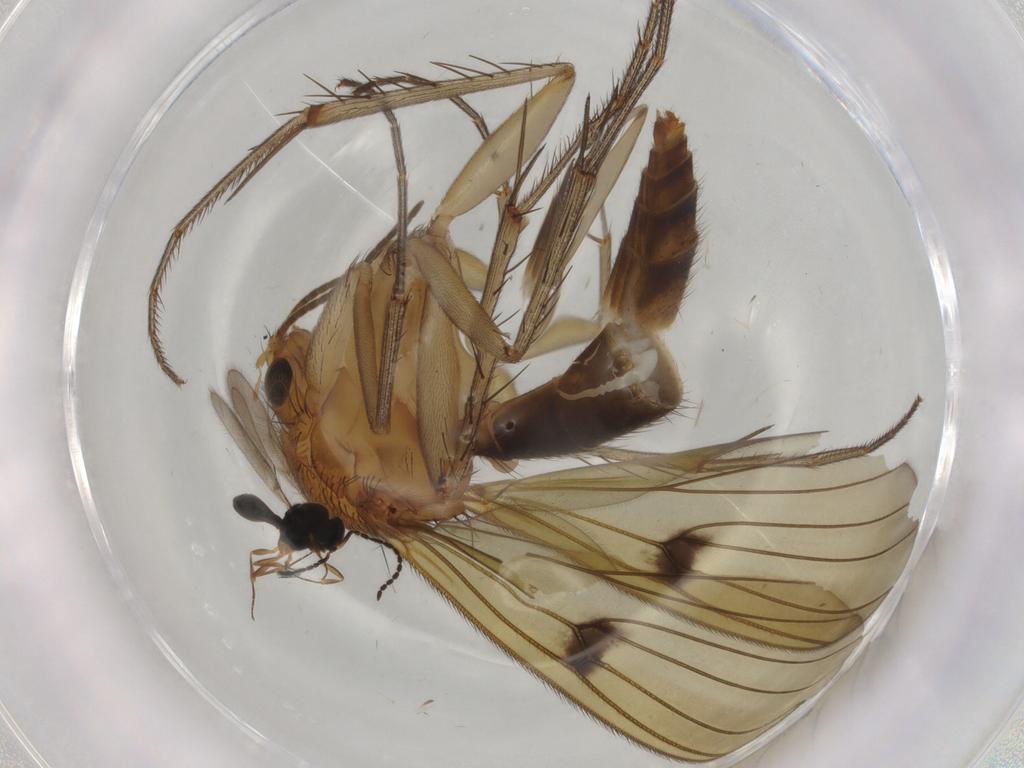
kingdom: Animalia
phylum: Arthropoda
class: Insecta
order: Hymenoptera
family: Scelionidae
